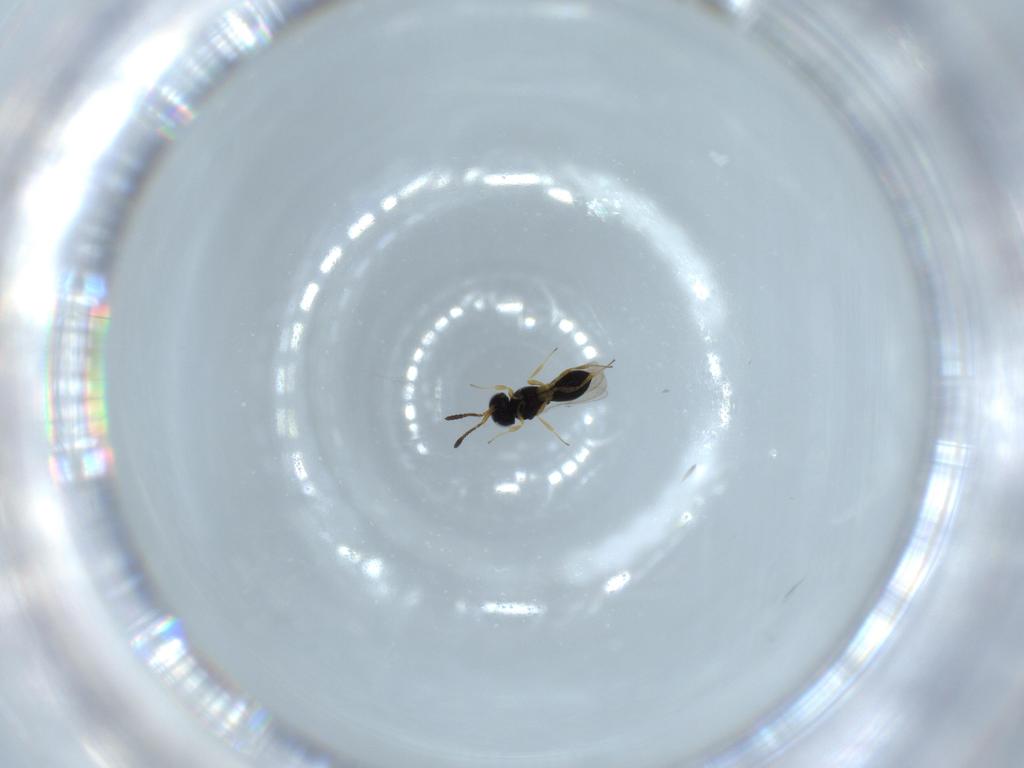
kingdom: Animalia
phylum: Arthropoda
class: Insecta
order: Hymenoptera
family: Scelionidae
